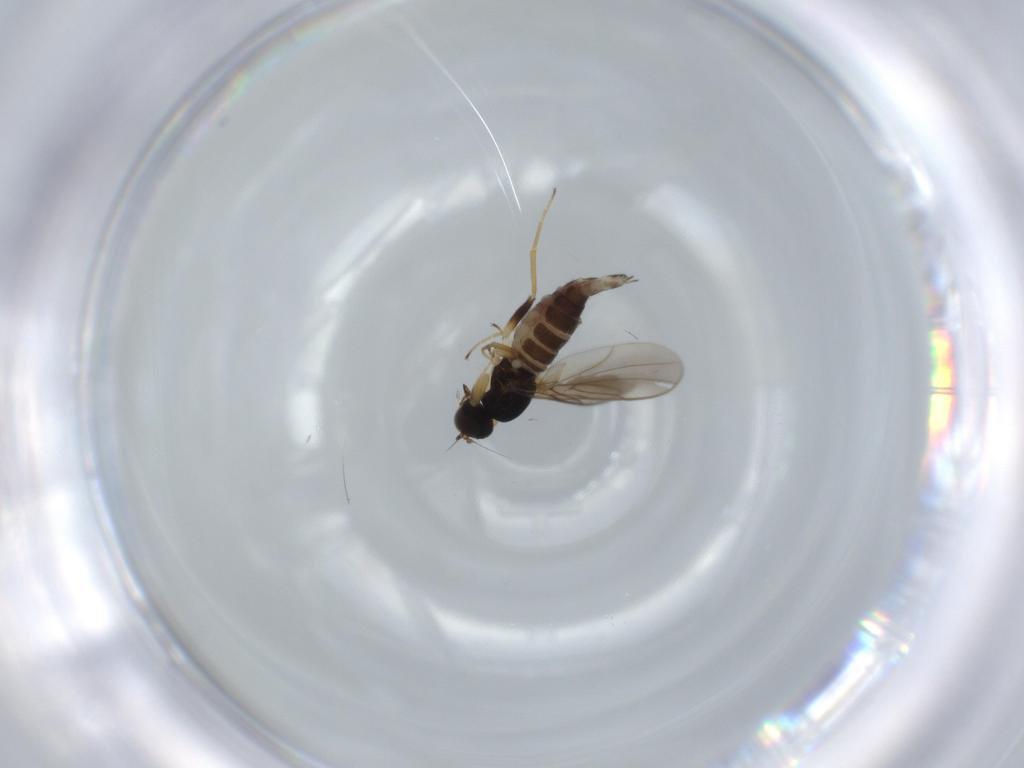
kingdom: Animalia
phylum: Arthropoda
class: Insecta
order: Diptera
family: Hybotidae
